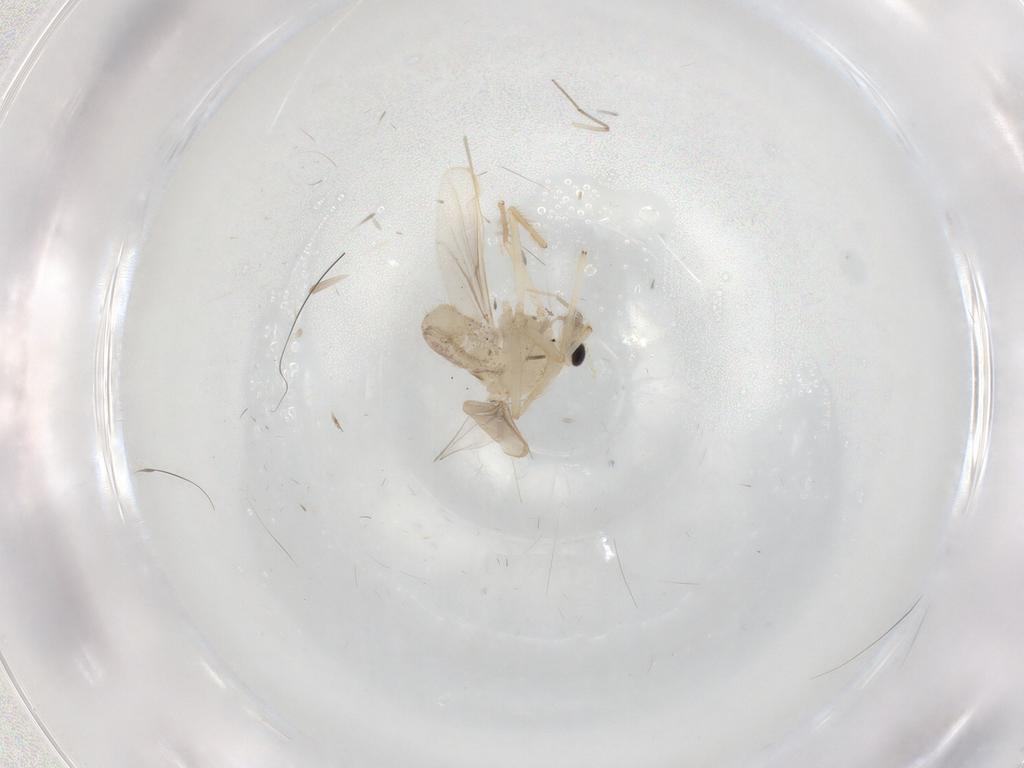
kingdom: Animalia
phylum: Arthropoda
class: Insecta
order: Diptera
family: Chironomidae
